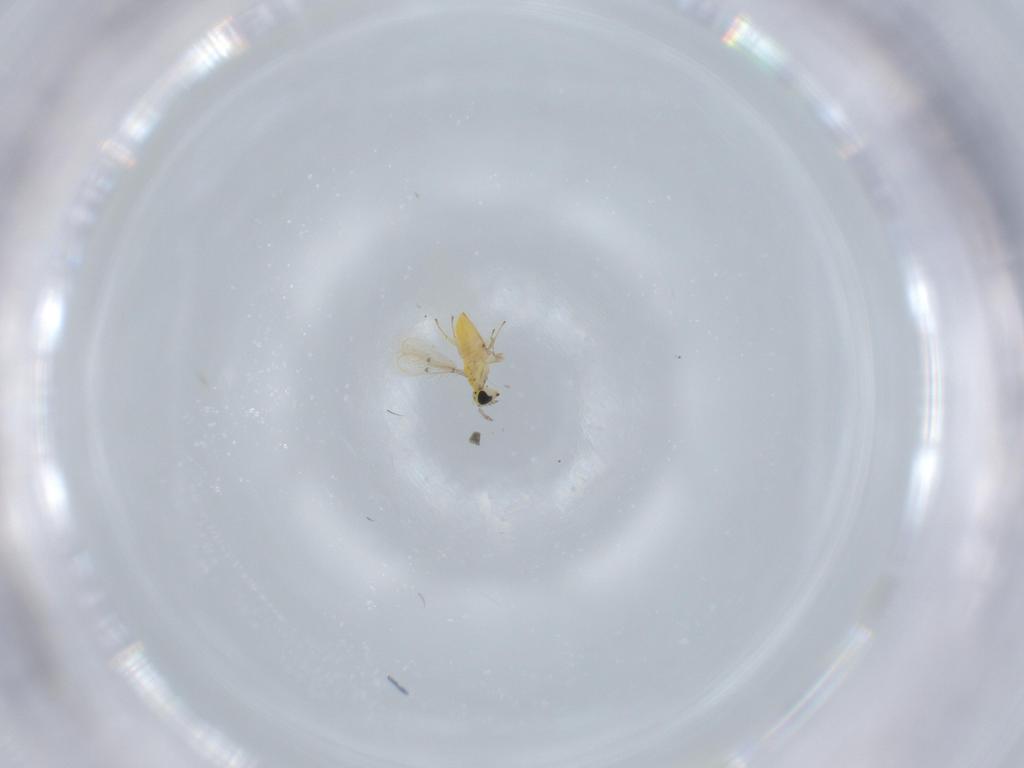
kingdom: Animalia
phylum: Arthropoda
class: Insecta
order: Hymenoptera
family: Trichogrammatidae
